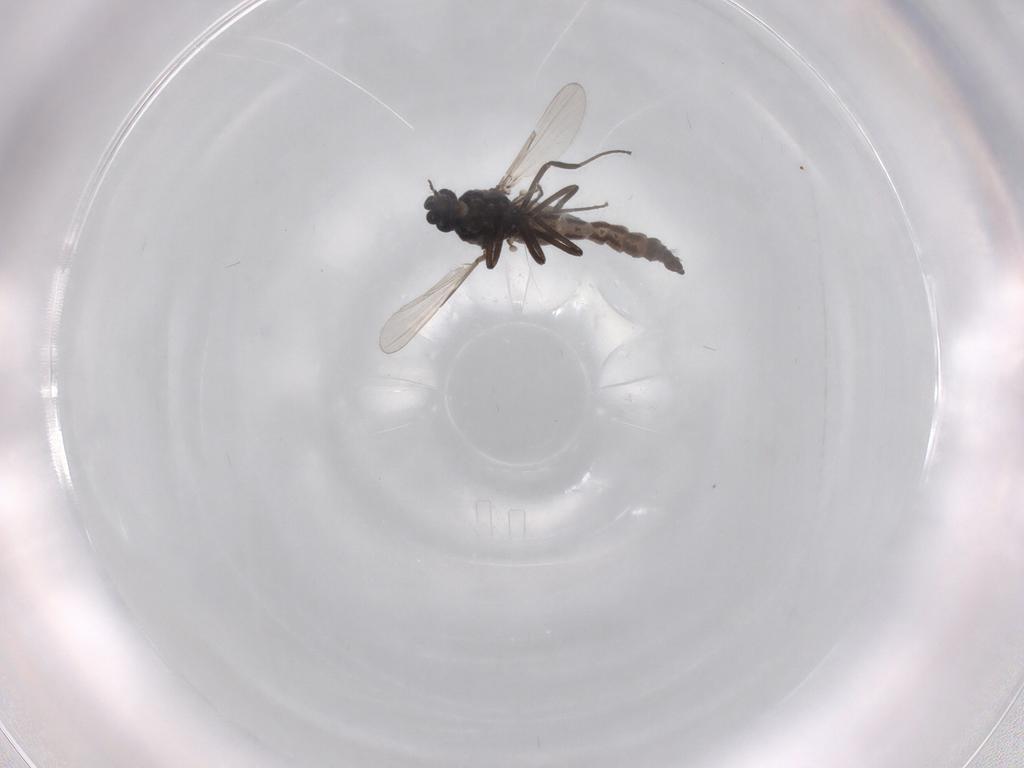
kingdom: Animalia
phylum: Arthropoda
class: Insecta
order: Diptera
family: Ceratopogonidae
